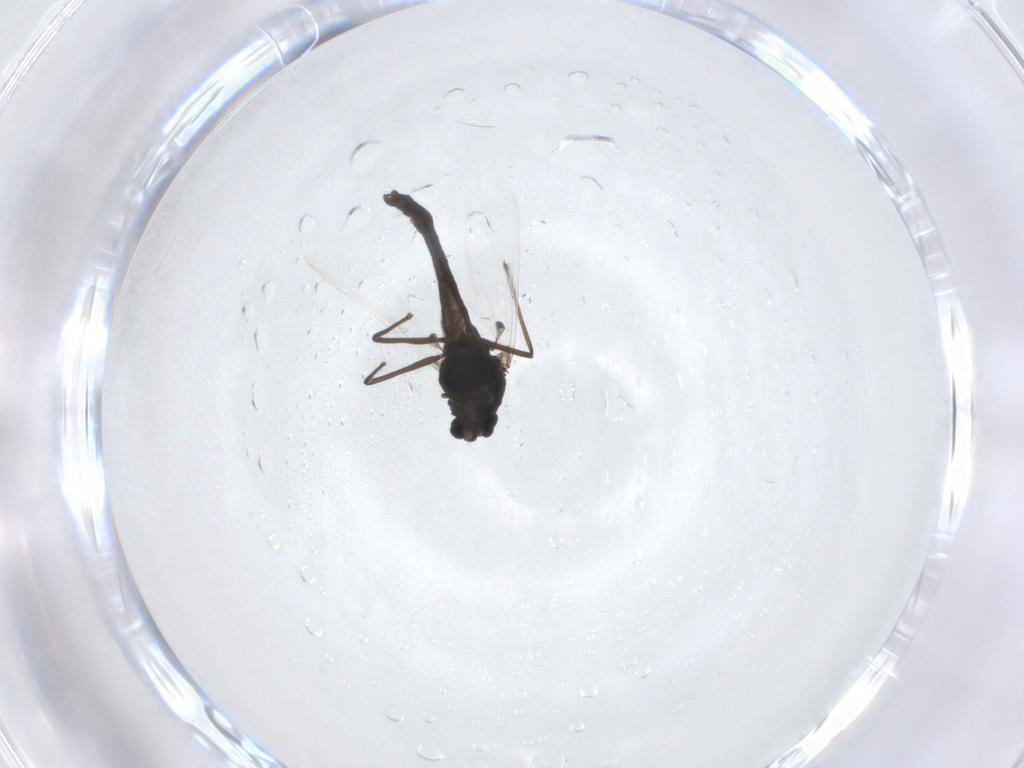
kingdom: Animalia
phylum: Arthropoda
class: Insecta
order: Diptera
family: Chironomidae
